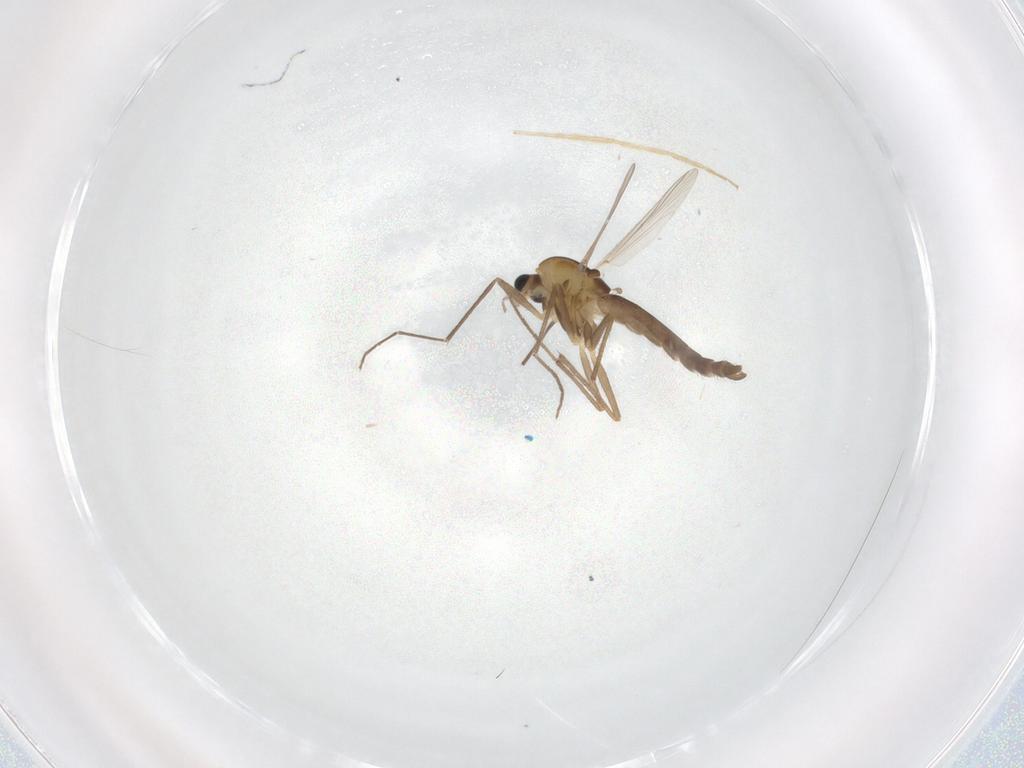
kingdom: Animalia
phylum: Arthropoda
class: Insecta
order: Diptera
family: Chironomidae
